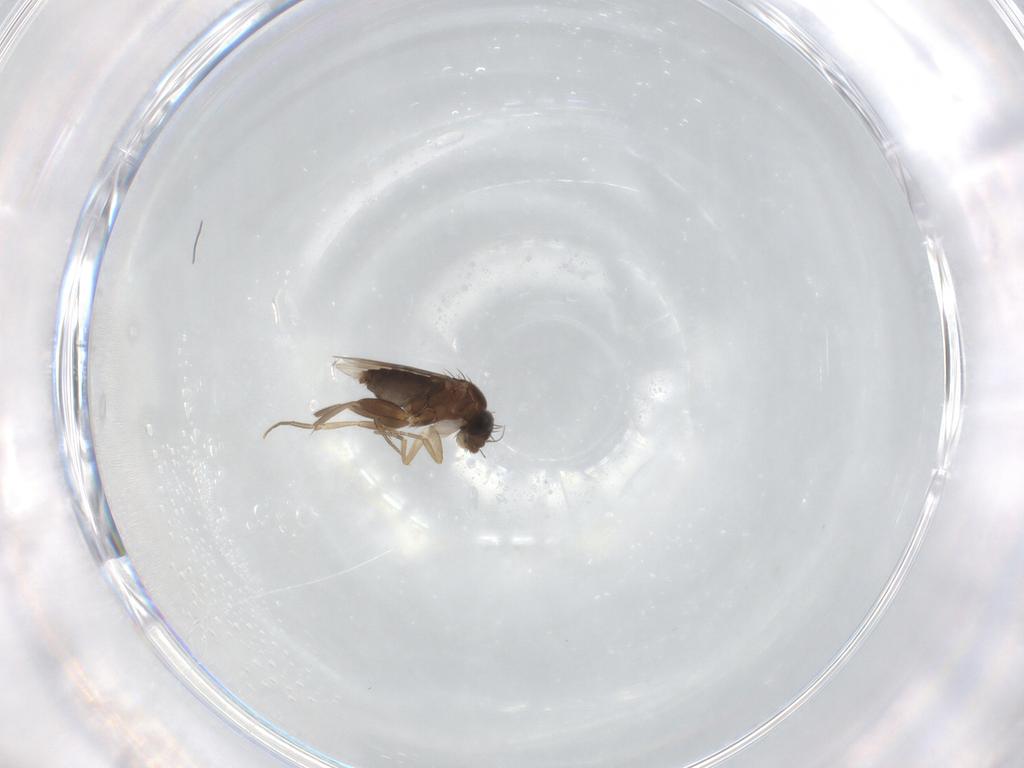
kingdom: Animalia
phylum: Arthropoda
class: Insecta
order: Diptera
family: Phoridae
